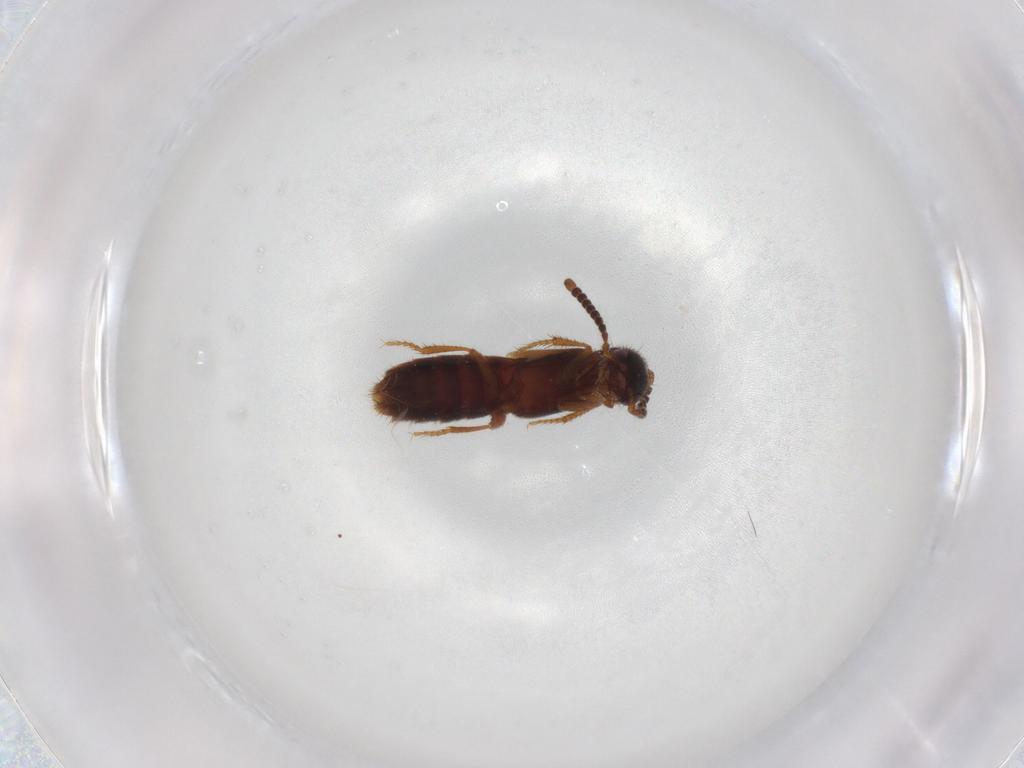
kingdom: Animalia
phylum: Arthropoda
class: Insecta
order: Coleoptera
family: Staphylinidae
